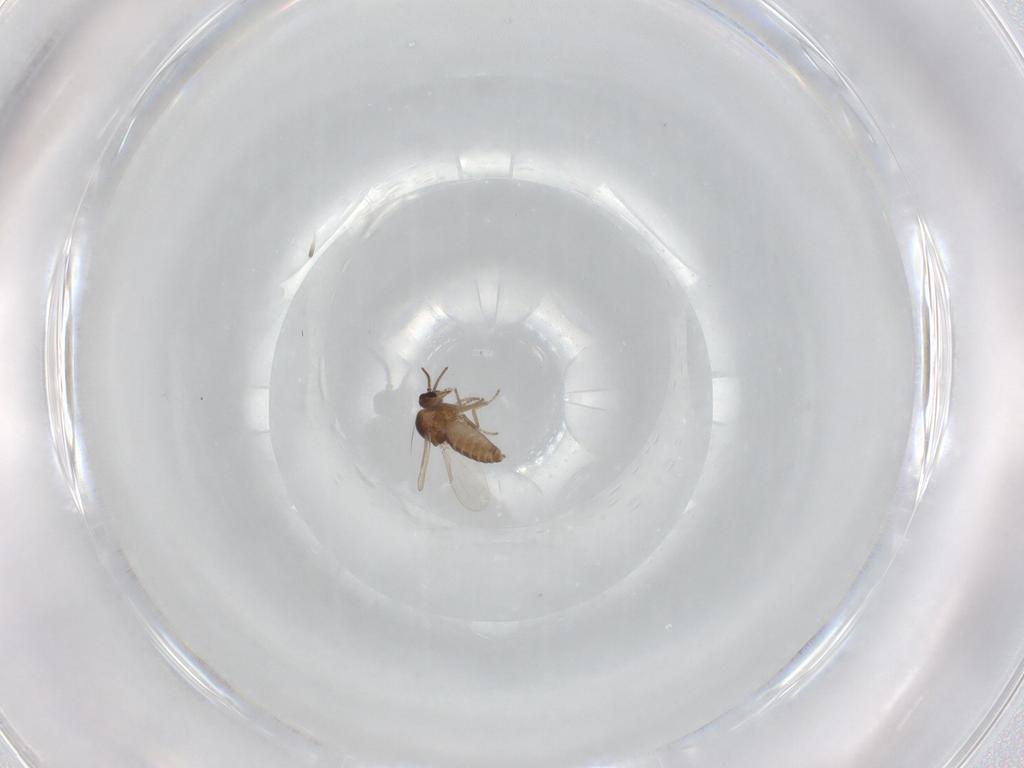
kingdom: Animalia
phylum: Arthropoda
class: Insecta
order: Diptera
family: Ceratopogonidae
